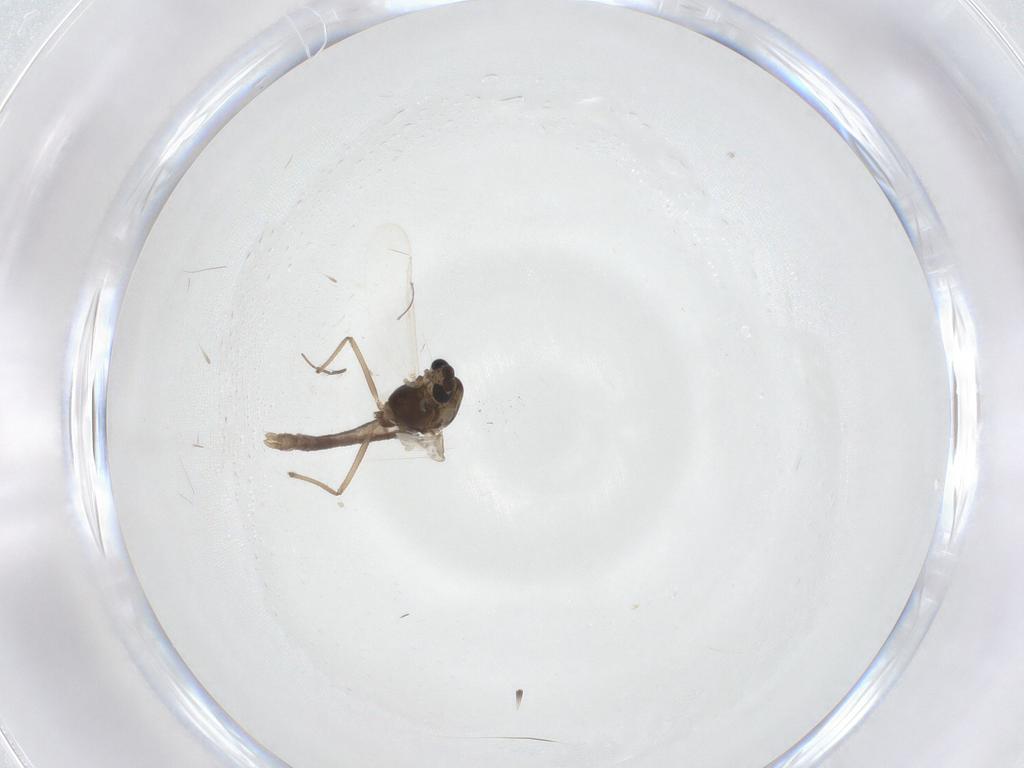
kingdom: Animalia
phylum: Arthropoda
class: Insecta
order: Diptera
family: Chironomidae
